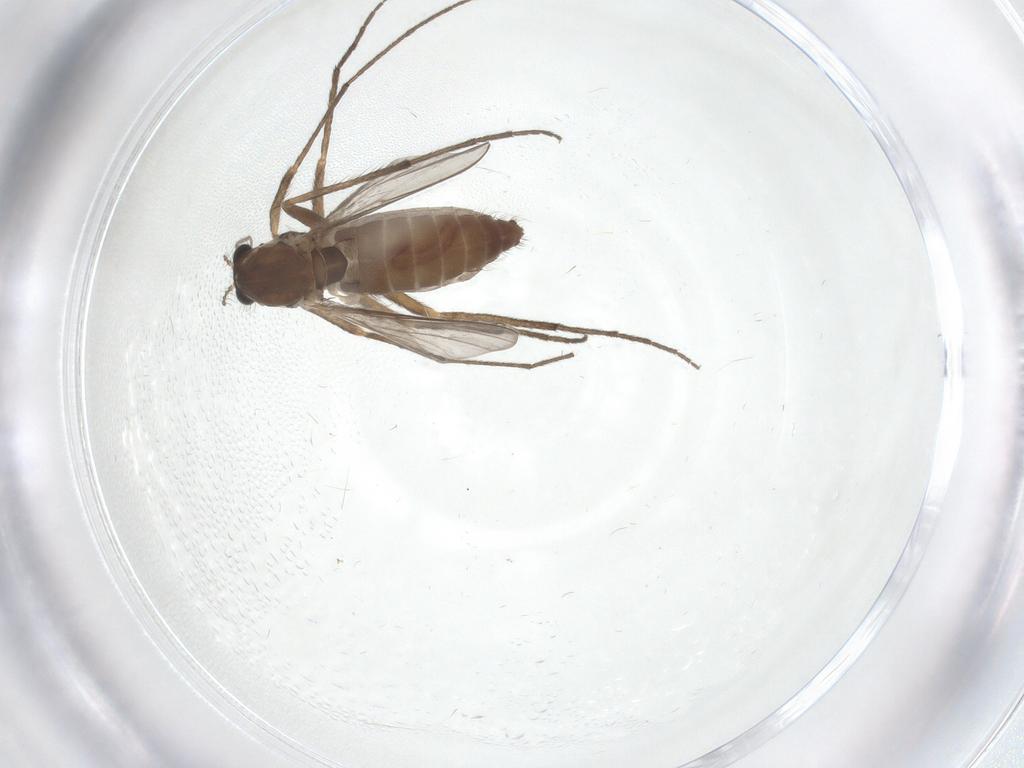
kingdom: Animalia
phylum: Arthropoda
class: Insecta
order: Diptera
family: Chironomidae
